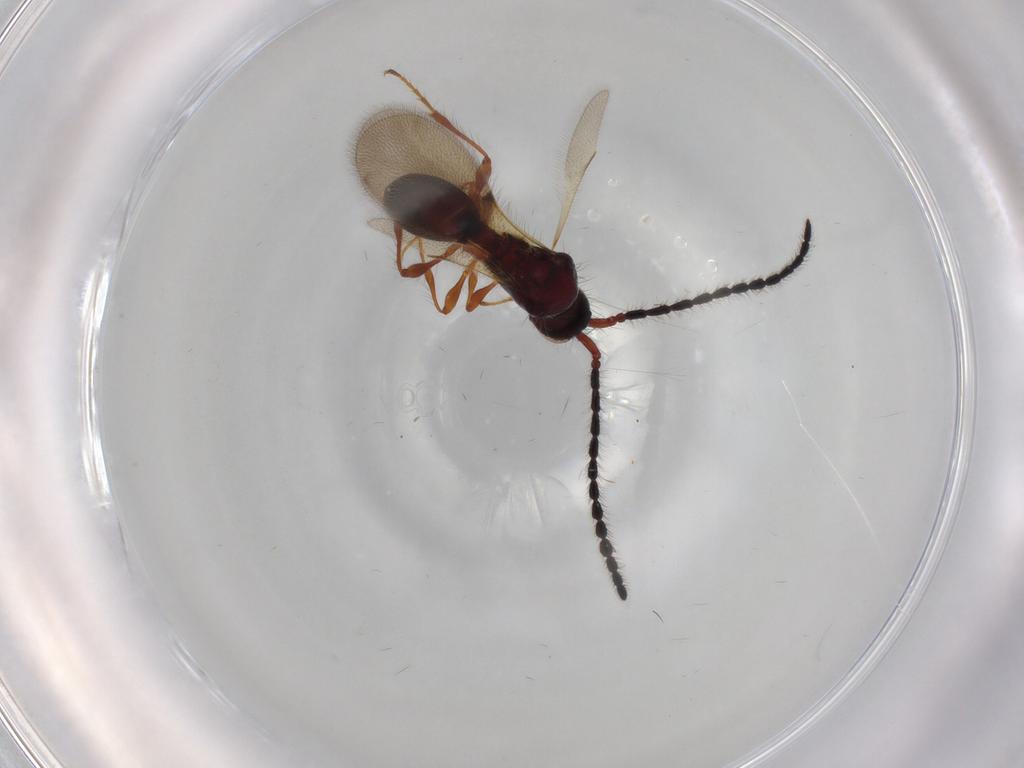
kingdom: Animalia
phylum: Arthropoda
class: Insecta
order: Hymenoptera
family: Diapriidae
